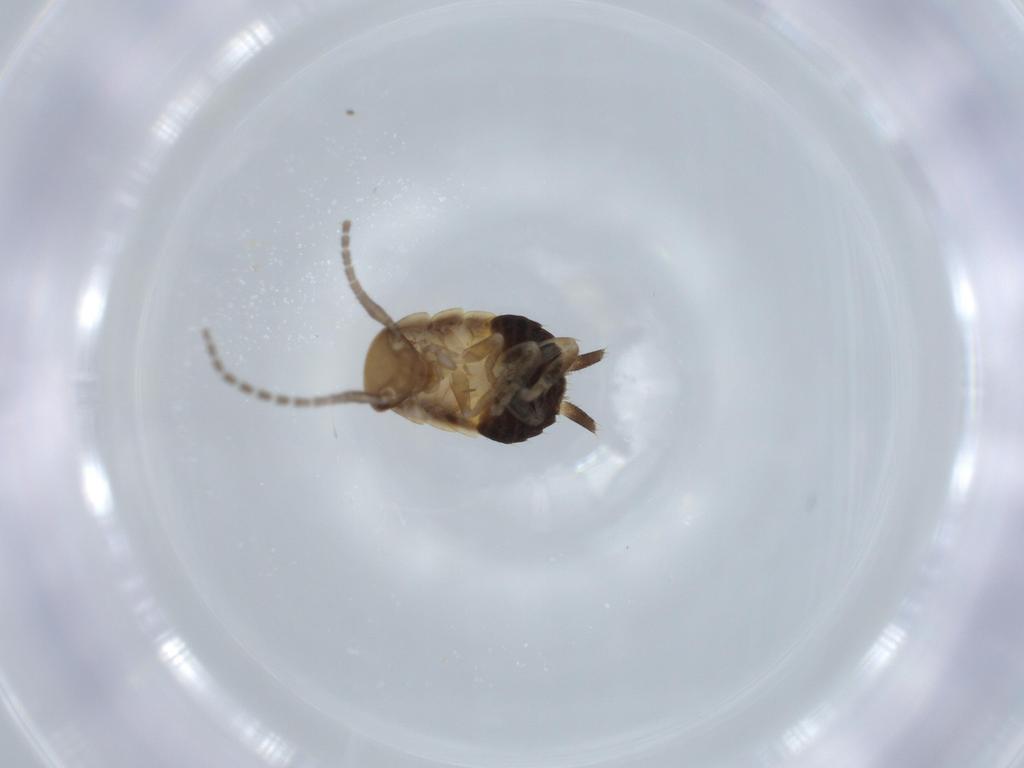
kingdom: Animalia
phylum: Arthropoda
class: Insecta
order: Blattodea
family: Ectobiidae
